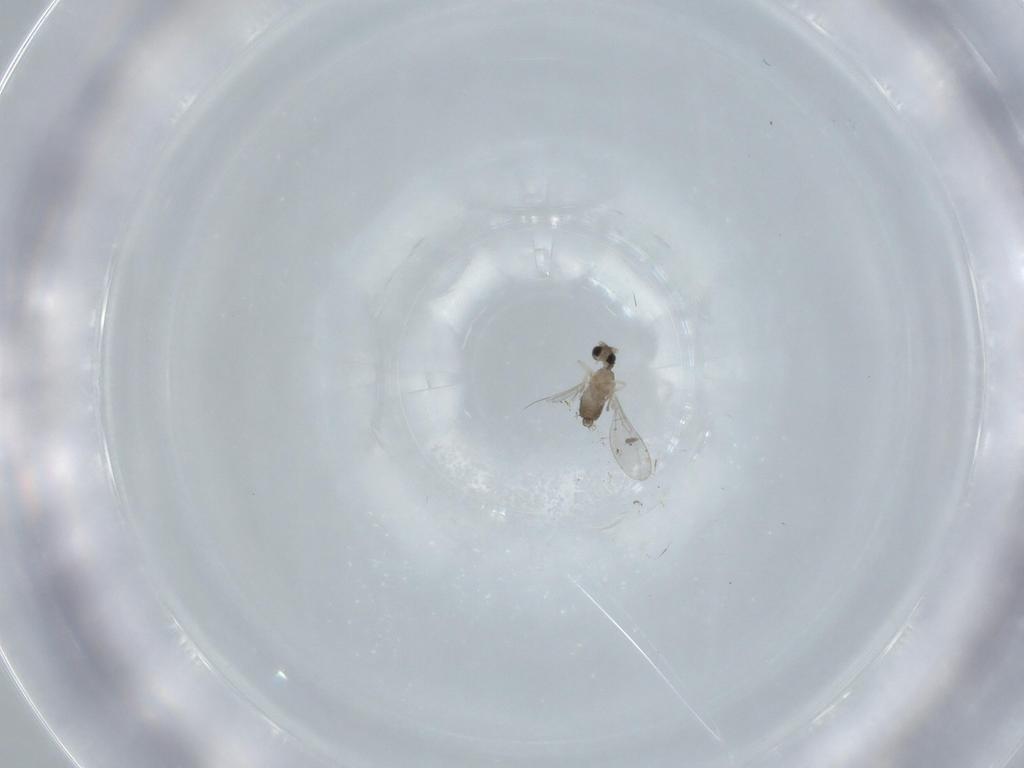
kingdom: Animalia
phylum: Arthropoda
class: Insecta
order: Diptera
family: Cecidomyiidae
